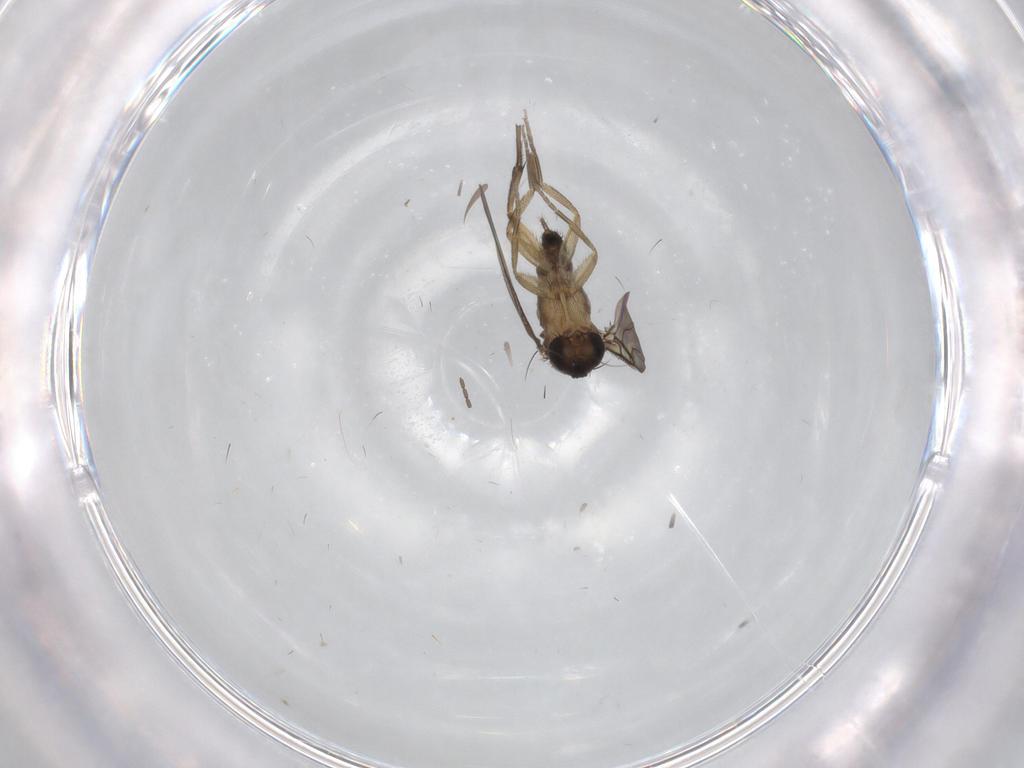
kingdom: Animalia
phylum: Arthropoda
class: Insecta
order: Diptera
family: Phoridae
